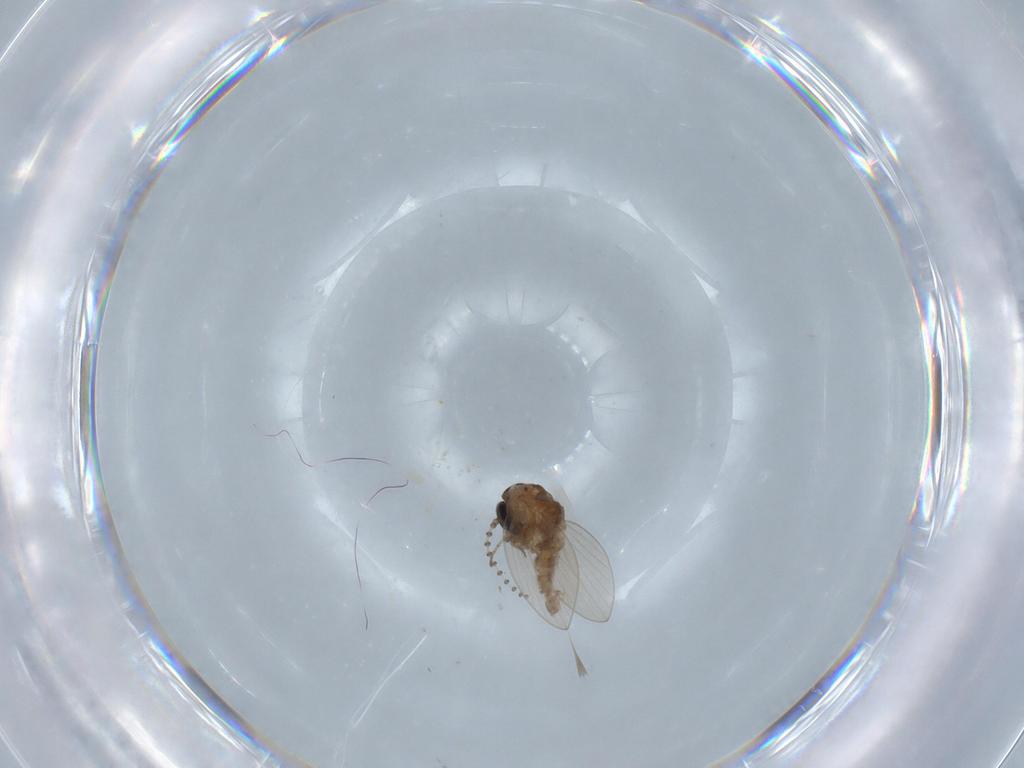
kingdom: Animalia
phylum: Arthropoda
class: Insecta
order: Diptera
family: Psychodidae
